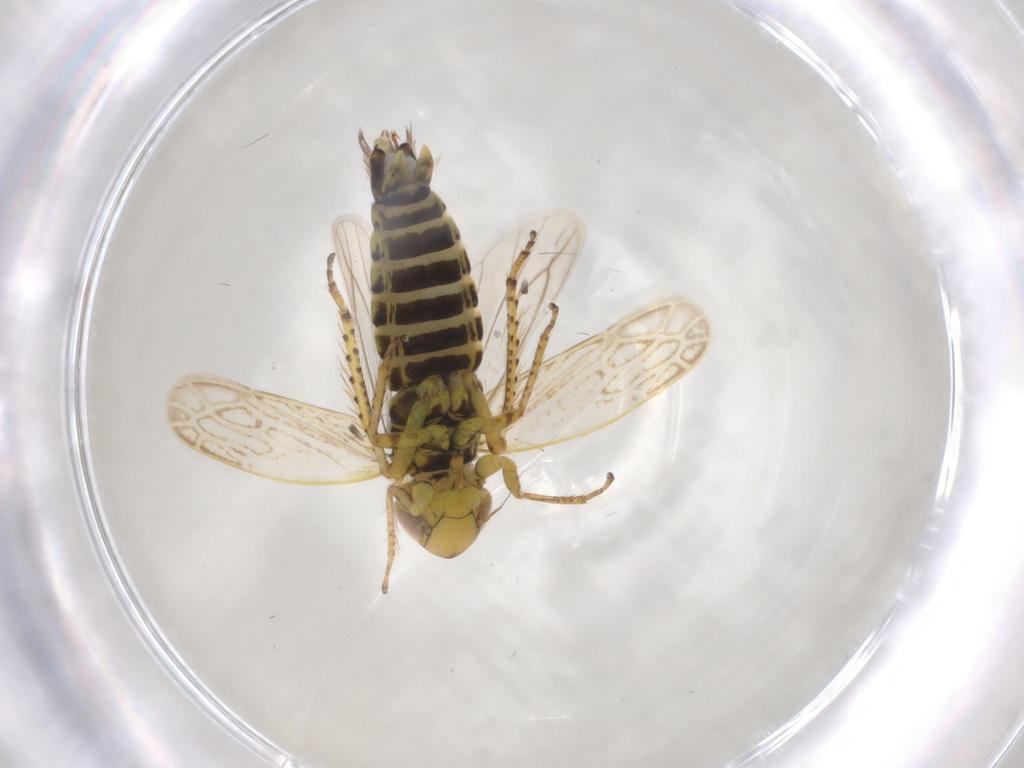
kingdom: Animalia
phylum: Arthropoda
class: Insecta
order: Hemiptera
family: Cicadellidae
